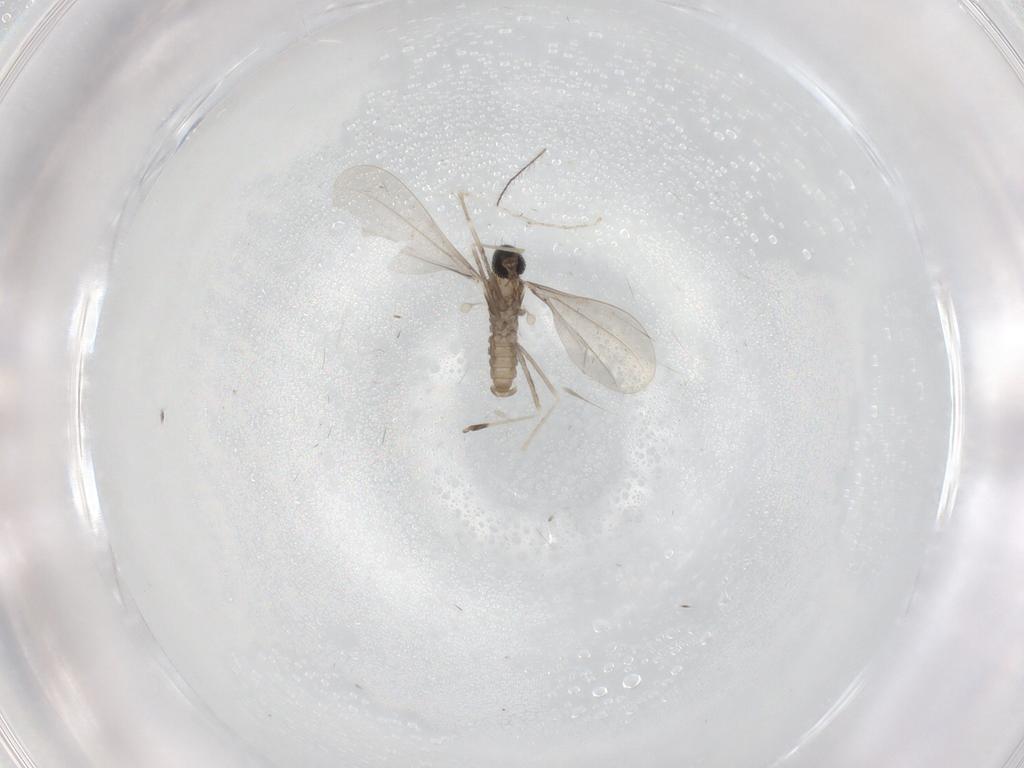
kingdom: Animalia
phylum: Arthropoda
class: Insecta
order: Diptera
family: Cecidomyiidae
